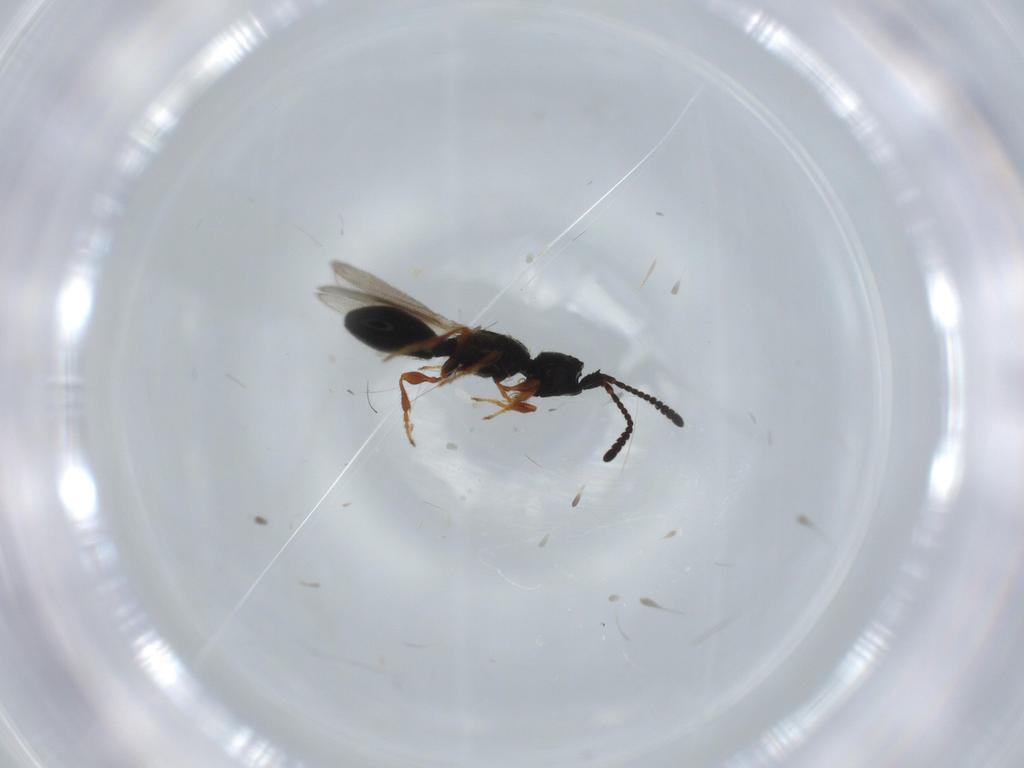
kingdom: Animalia
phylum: Arthropoda
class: Insecta
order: Hymenoptera
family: Diapriidae
